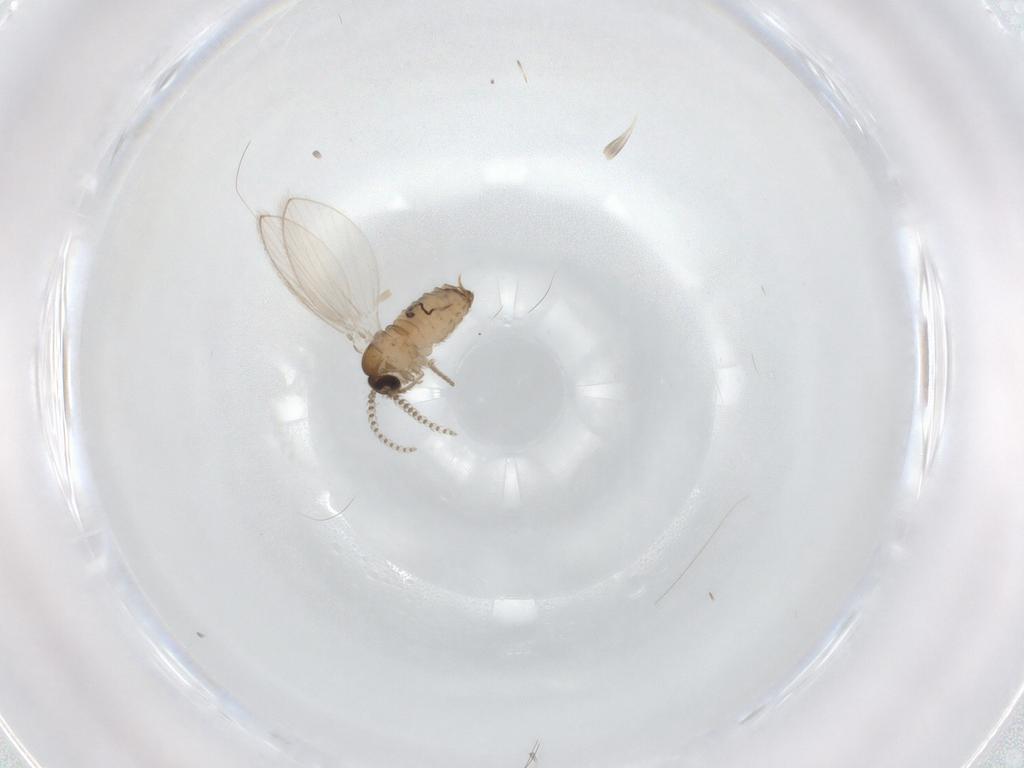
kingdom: Animalia
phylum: Arthropoda
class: Insecta
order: Diptera
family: Psychodidae
